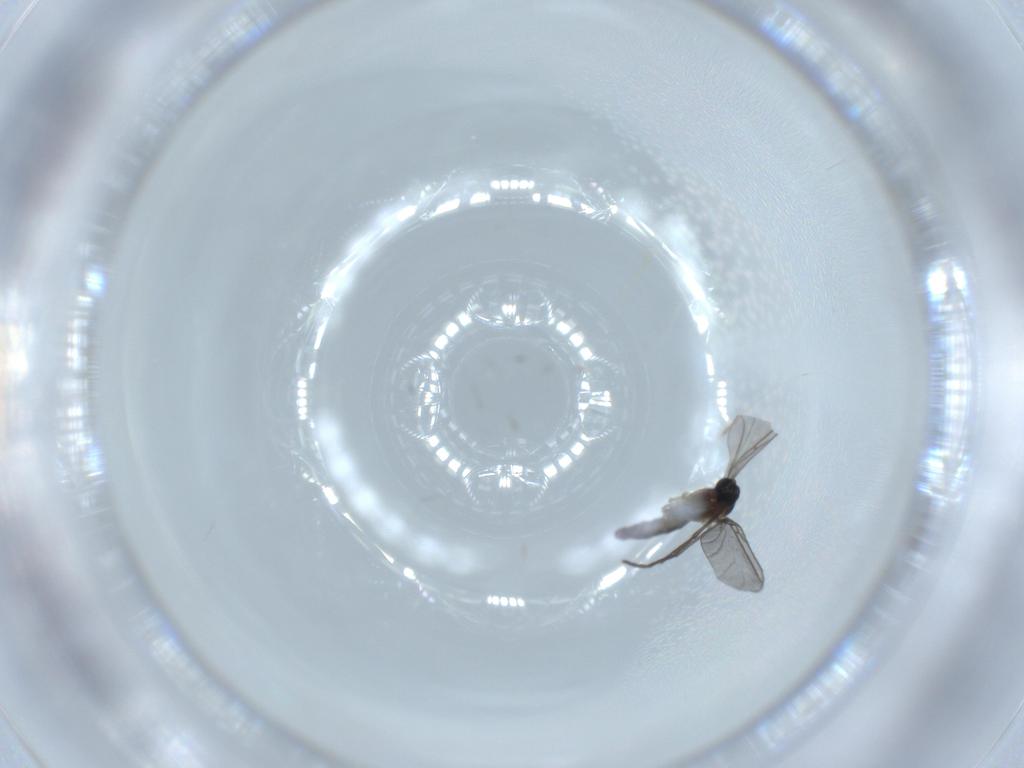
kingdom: Animalia
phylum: Arthropoda
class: Insecta
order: Diptera
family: Sciaridae
